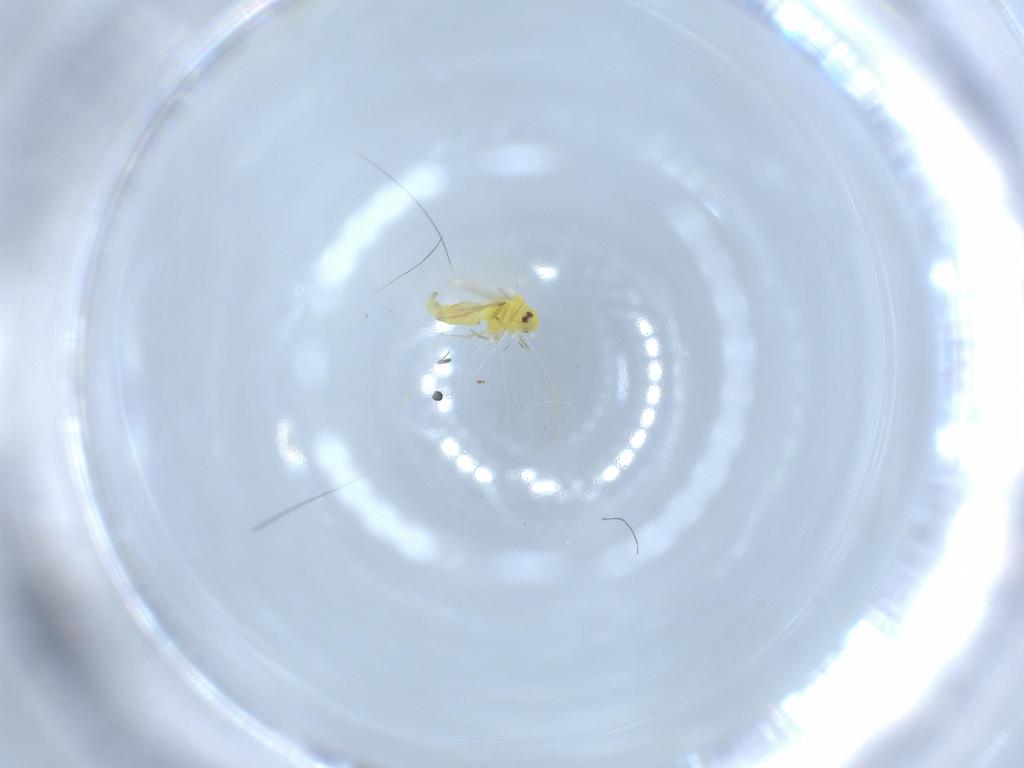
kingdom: Animalia
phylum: Arthropoda
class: Insecta
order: Hemiptera
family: Aleyrodidae
